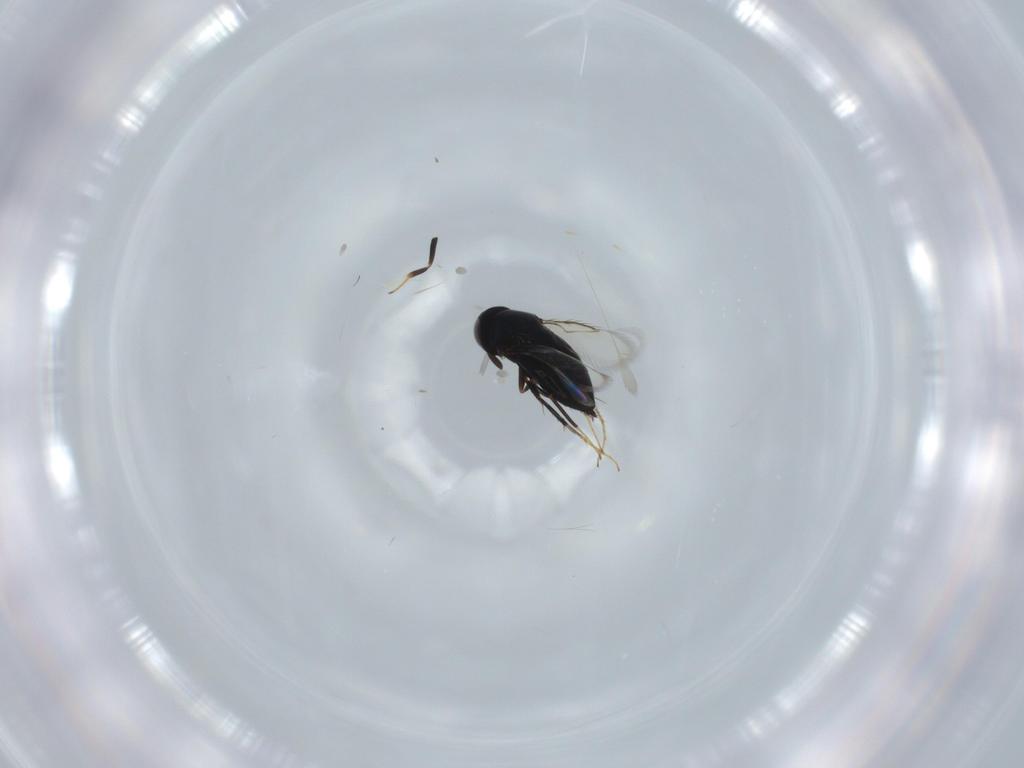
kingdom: Animalia
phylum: Arthropoda
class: Insecta
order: Hymenoptera
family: Signiphoridae
